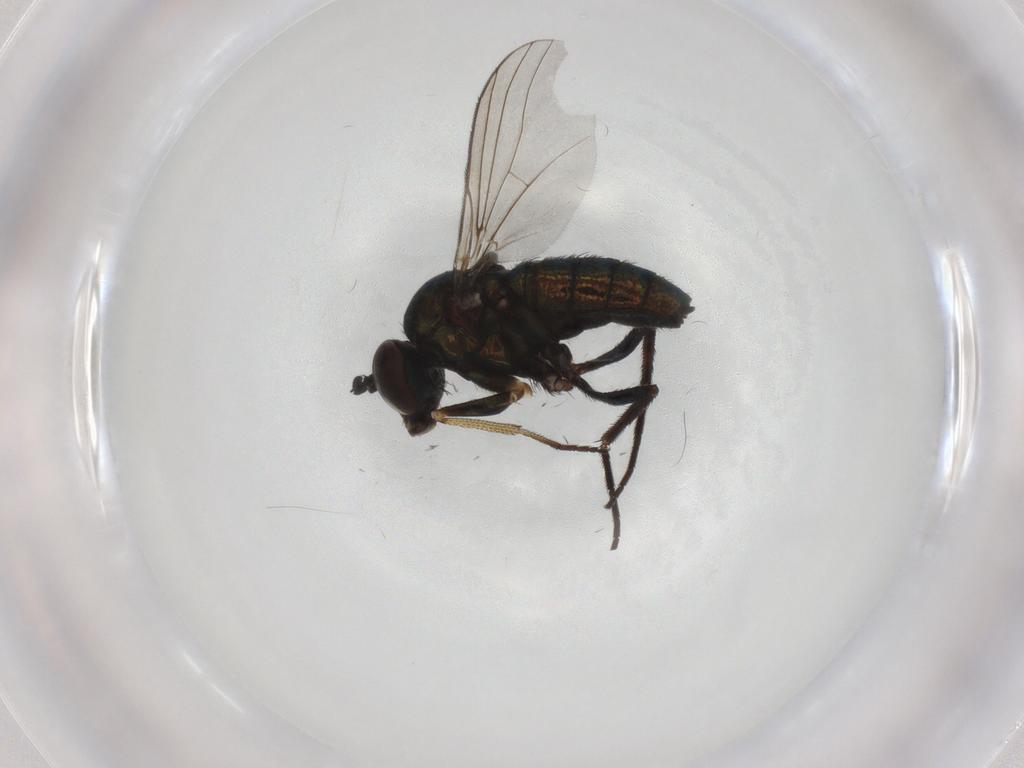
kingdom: Animalia
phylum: Arthropoda
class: Insecta
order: Diptera
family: Dolichopodidae
